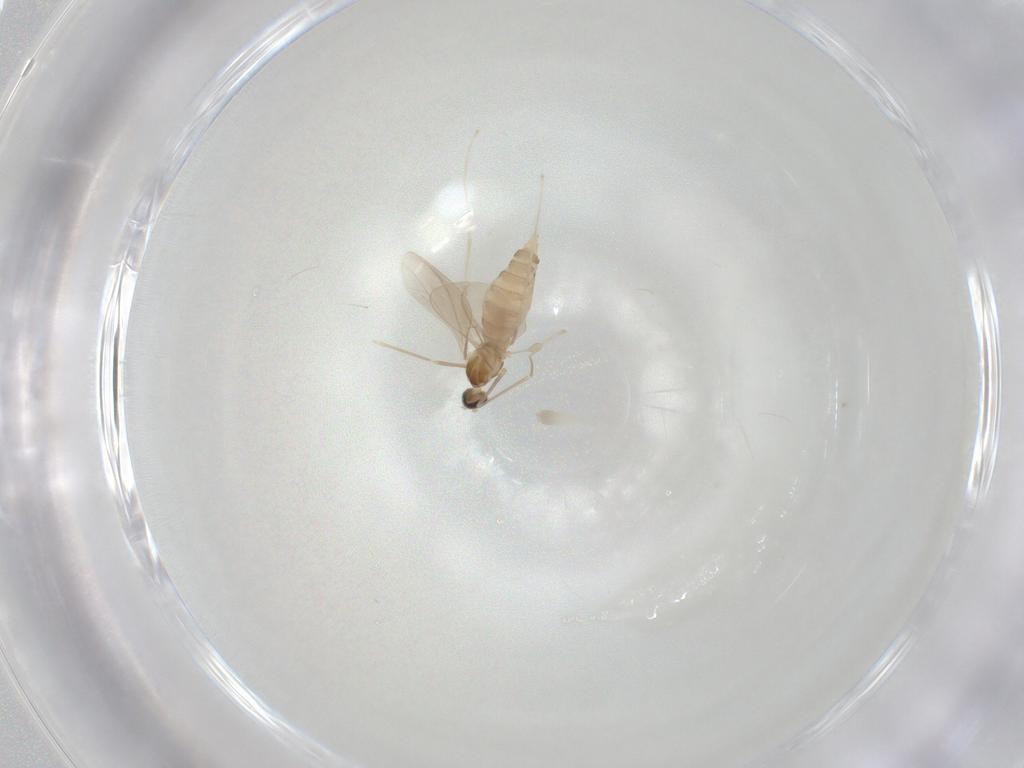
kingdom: Animalia
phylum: Arthropoda
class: Insecta
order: Diptera
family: Cecidomyiidae
